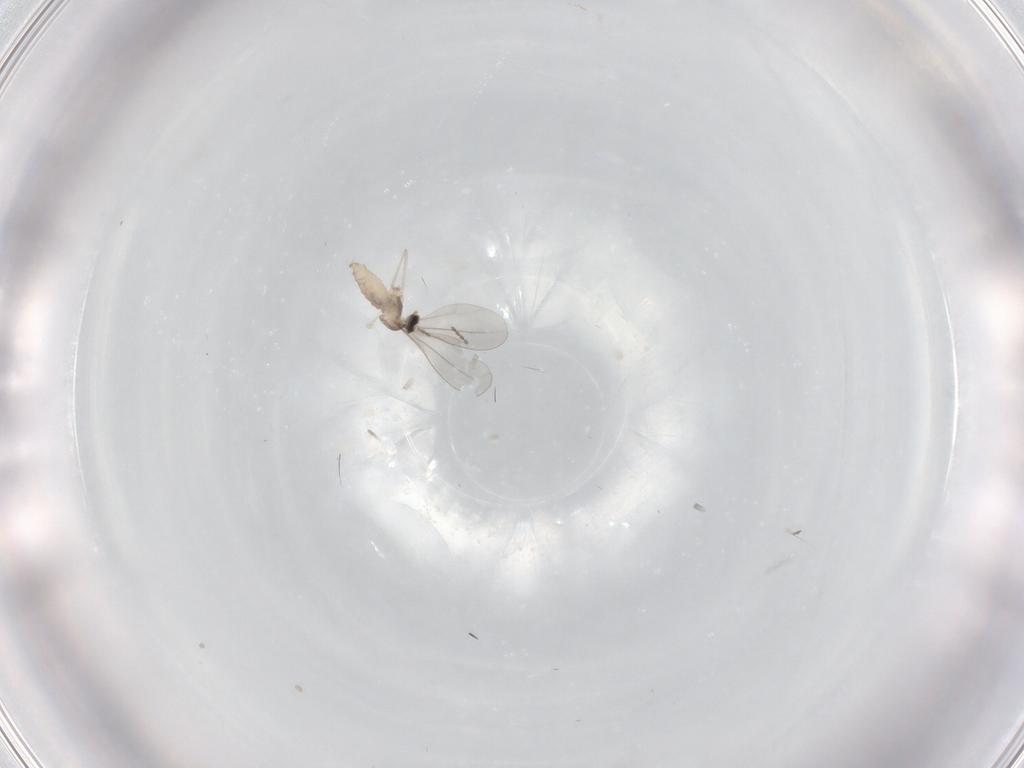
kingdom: Animalia
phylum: Arthropoda
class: Insecta
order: Diptera
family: Cecidomyiidae
